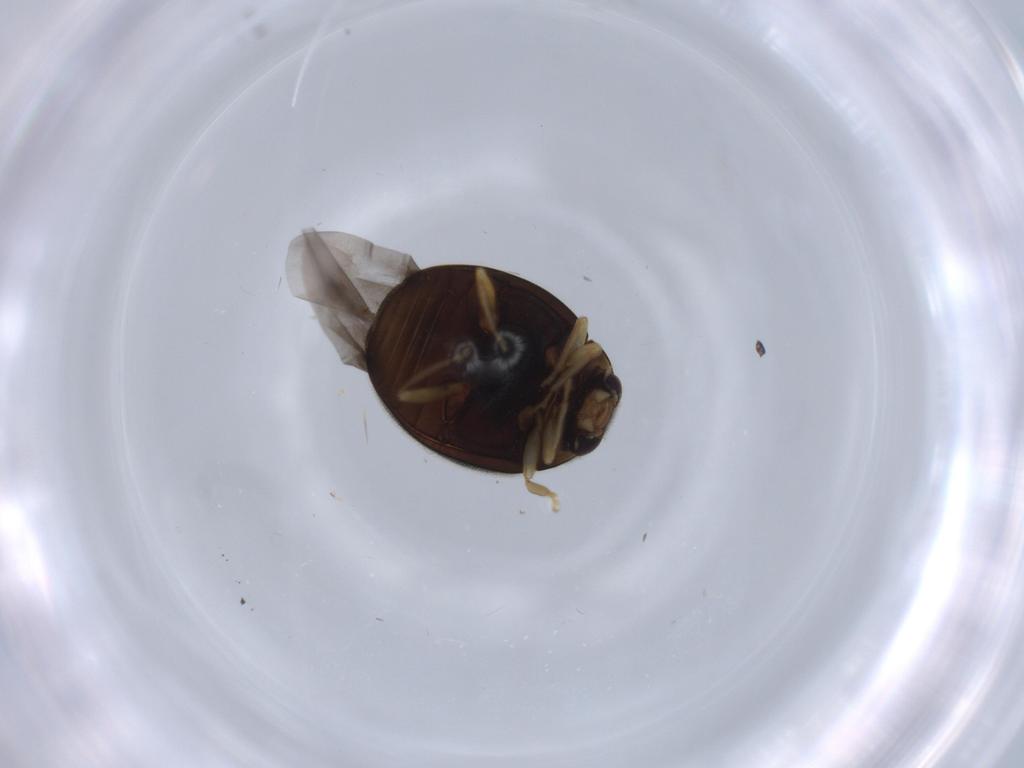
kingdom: Animalia
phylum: Arthropoda
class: Insecta
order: Coleoptera
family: Coccinellidae
